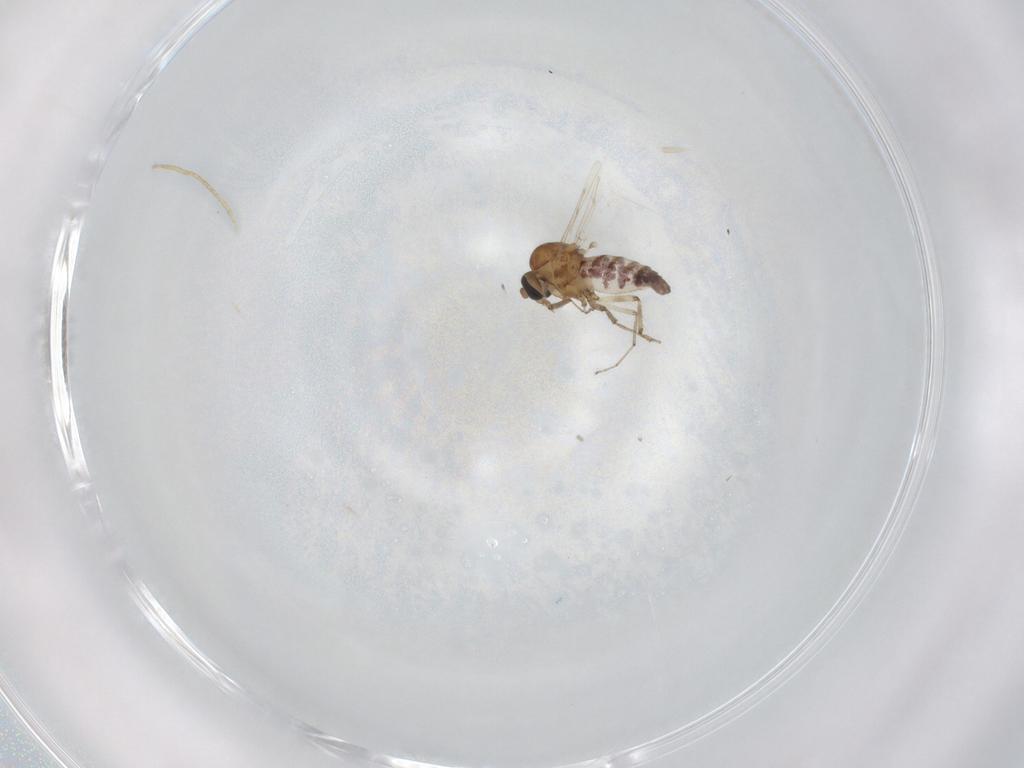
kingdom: Animalia
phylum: Arthropoda
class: Insecta
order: Diptera
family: Ceratopogonidae
